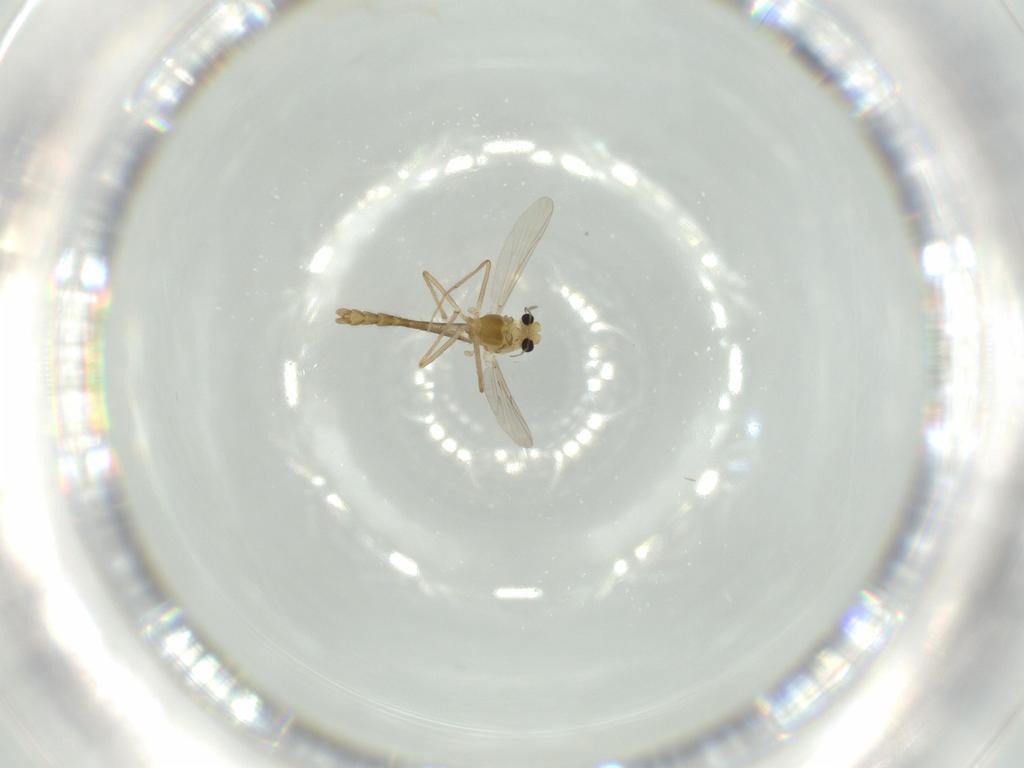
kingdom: Animalia
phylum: Arthropoda
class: Insecta
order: Diptera
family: Chironomidae
